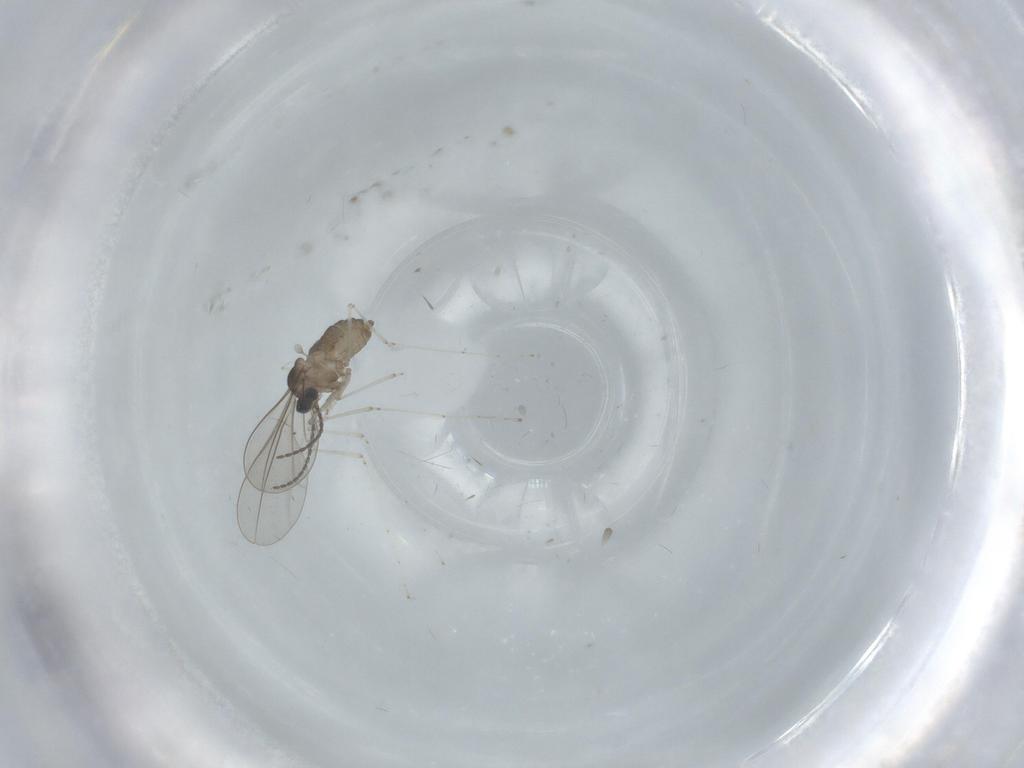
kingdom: Animalia
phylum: Arthropoda
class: Insecta
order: Diptera
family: Cecidomyiidae
